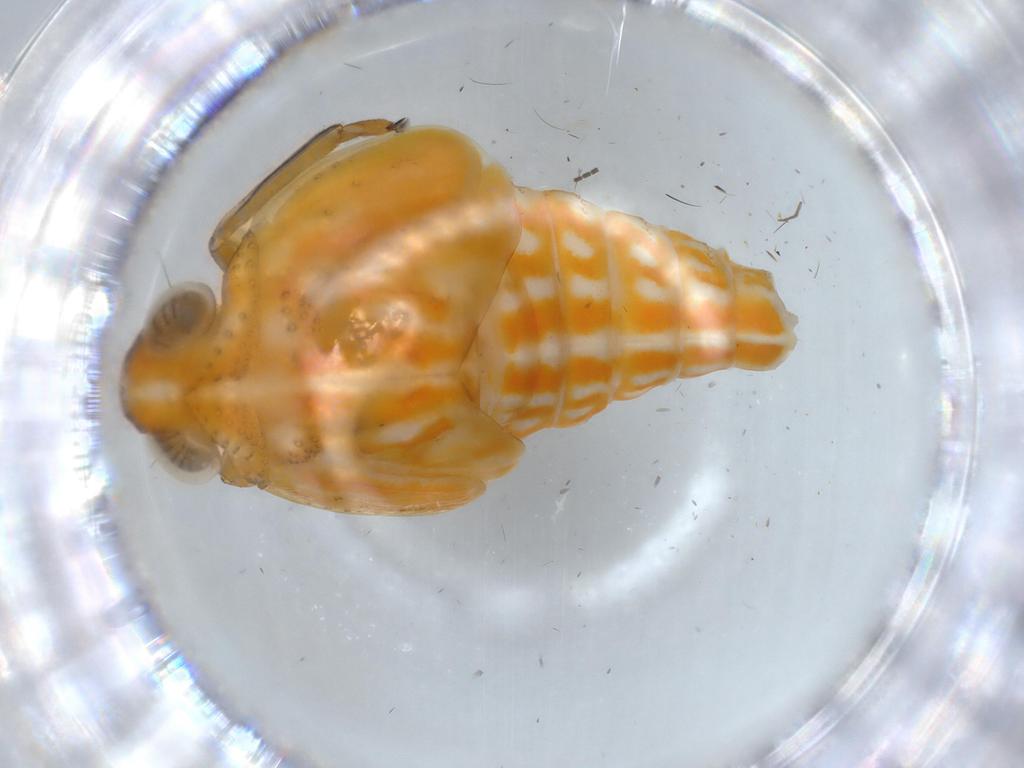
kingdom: Animalia
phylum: Arthropoda
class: Insecta
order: Hemiptera
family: Issidae
